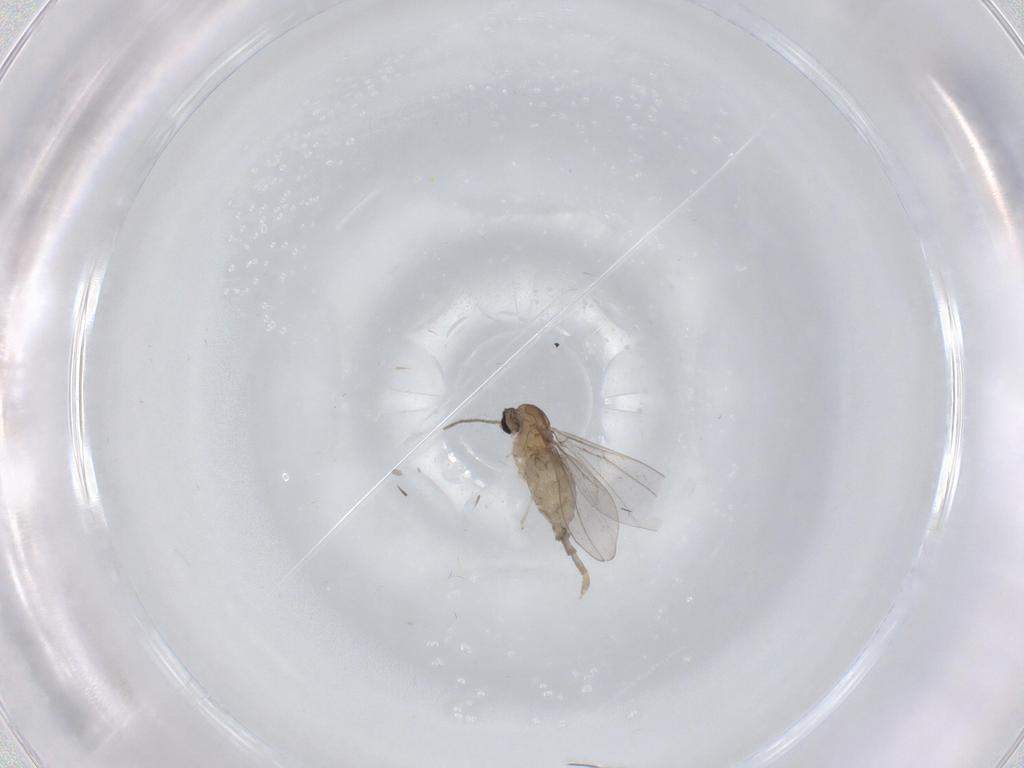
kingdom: Animalia
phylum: Arthropoda
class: Insecta
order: Diptera
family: Cecidomyiidae
